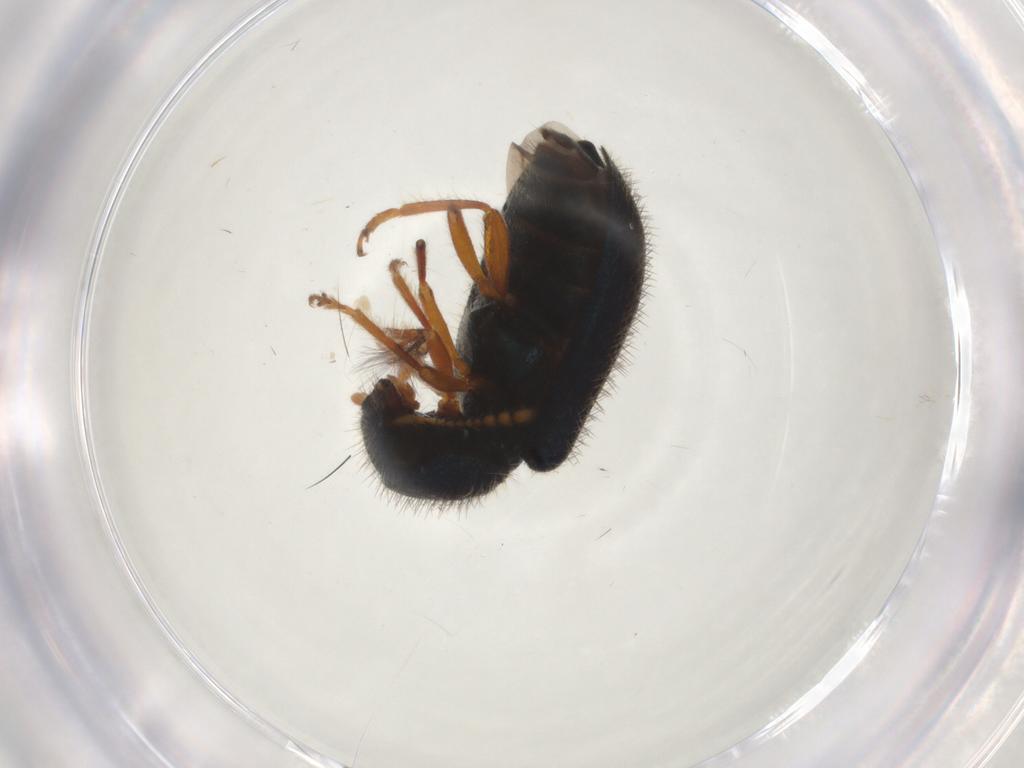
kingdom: Animalia
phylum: Arthropoda
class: Insecta
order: Coleoptera
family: Cleridae
